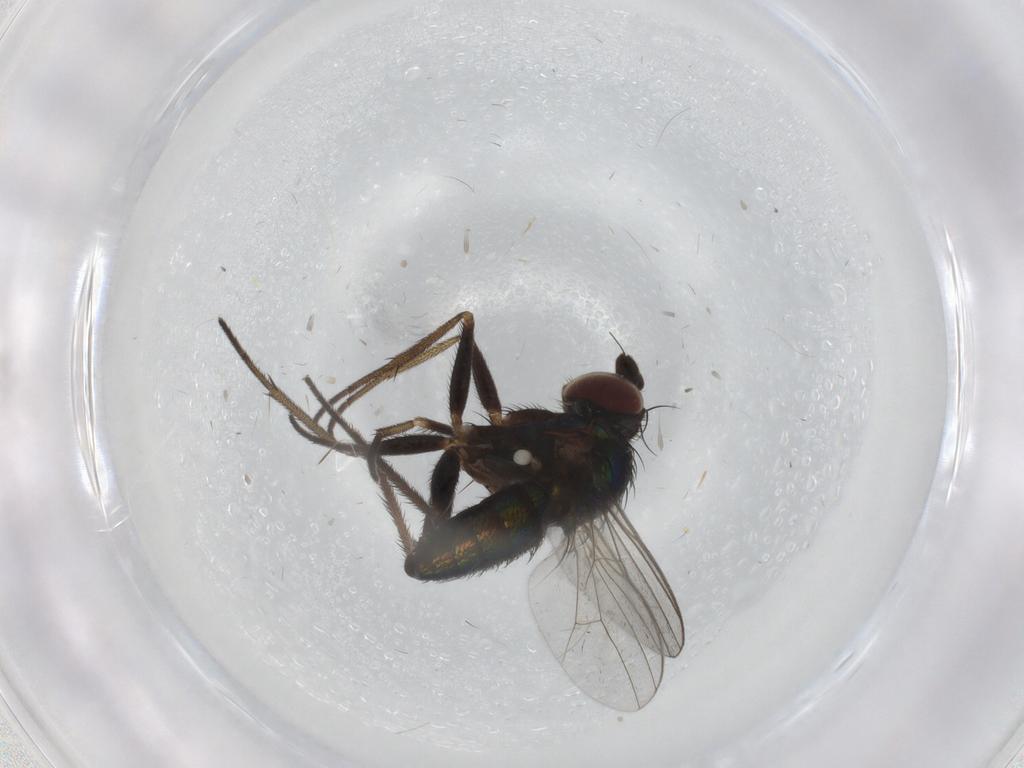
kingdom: Animalia
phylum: Arthropoda
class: Insecta
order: Diptera
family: Dolichopodidae
